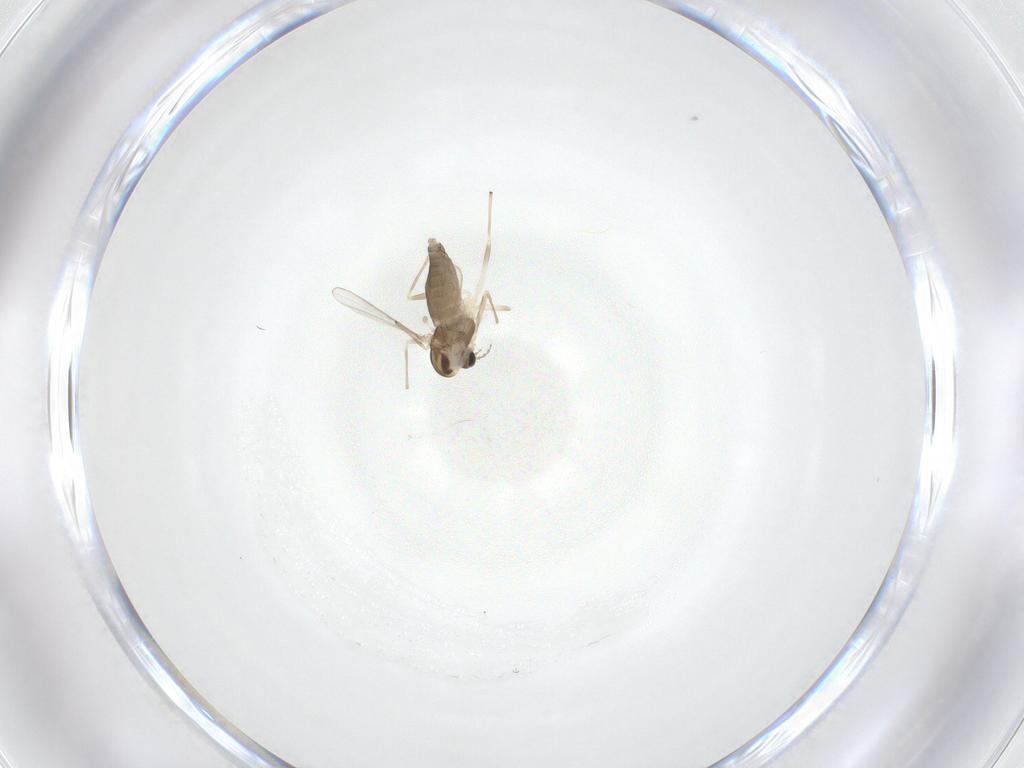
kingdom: Animalia
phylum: Arthropoda
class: Insecta
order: Diptera
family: Chironomidae
